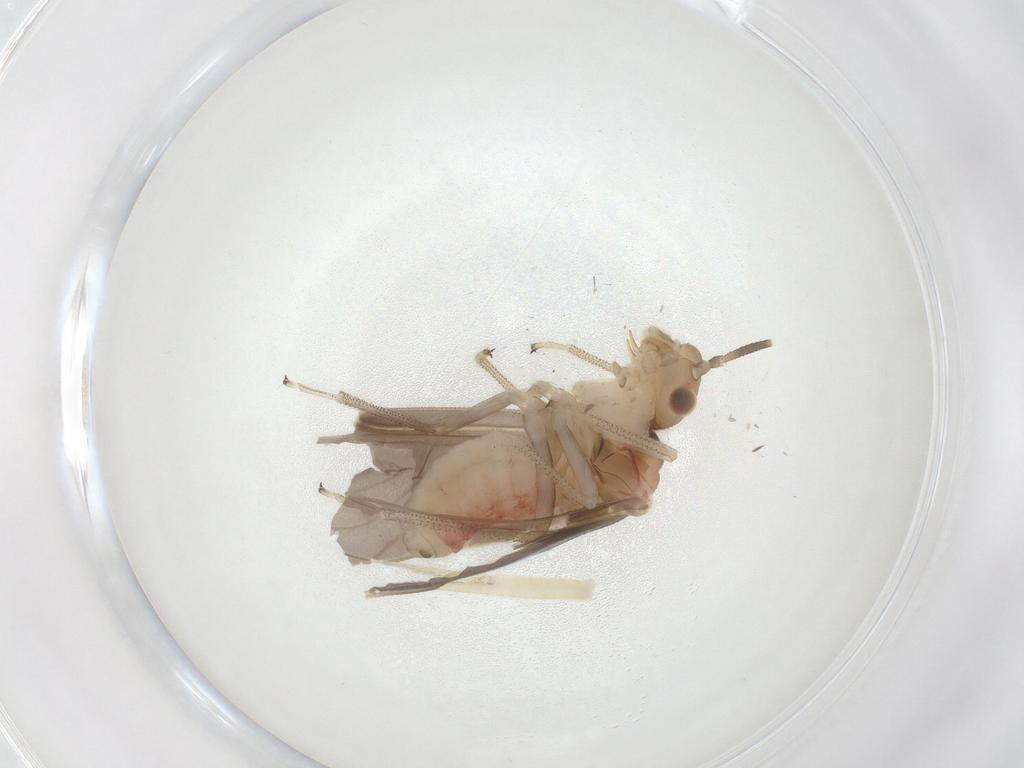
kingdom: Animalia
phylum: Arthropoda
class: Insecta
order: Psocodea
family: Amphipsocidae
